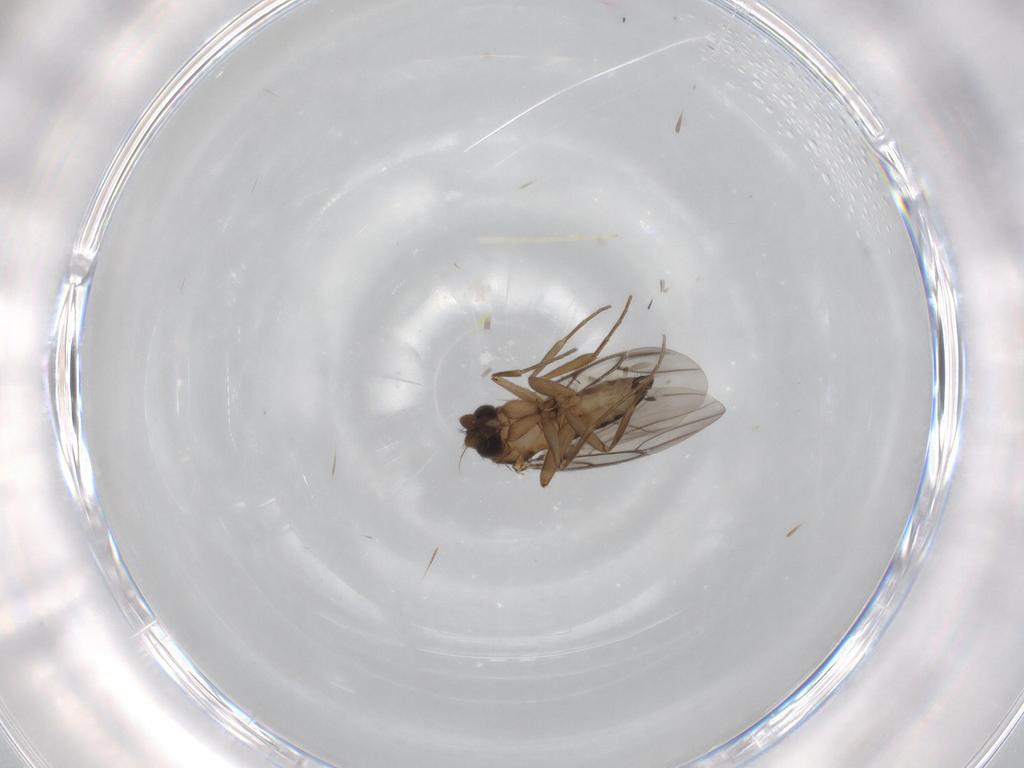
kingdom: Animalia
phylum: Arthropoda
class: Insecta
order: Diptera
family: Phoridae
